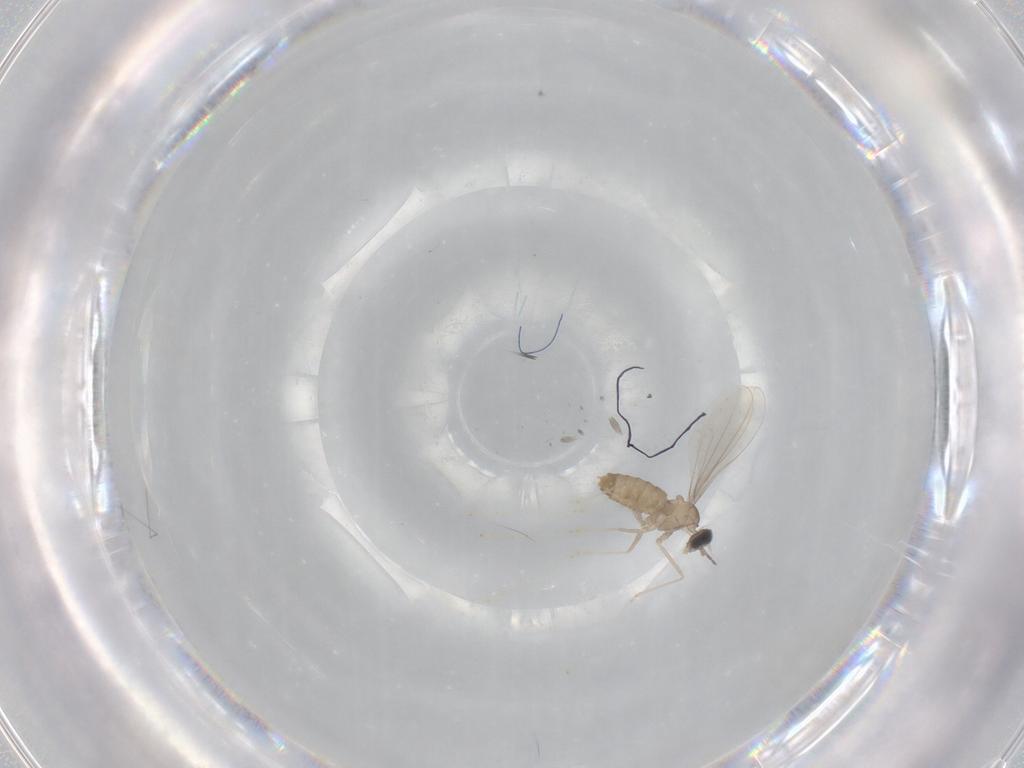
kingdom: Animalia
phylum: Arthropoda
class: Insecta
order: Diptera
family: Cecidomyiidae
